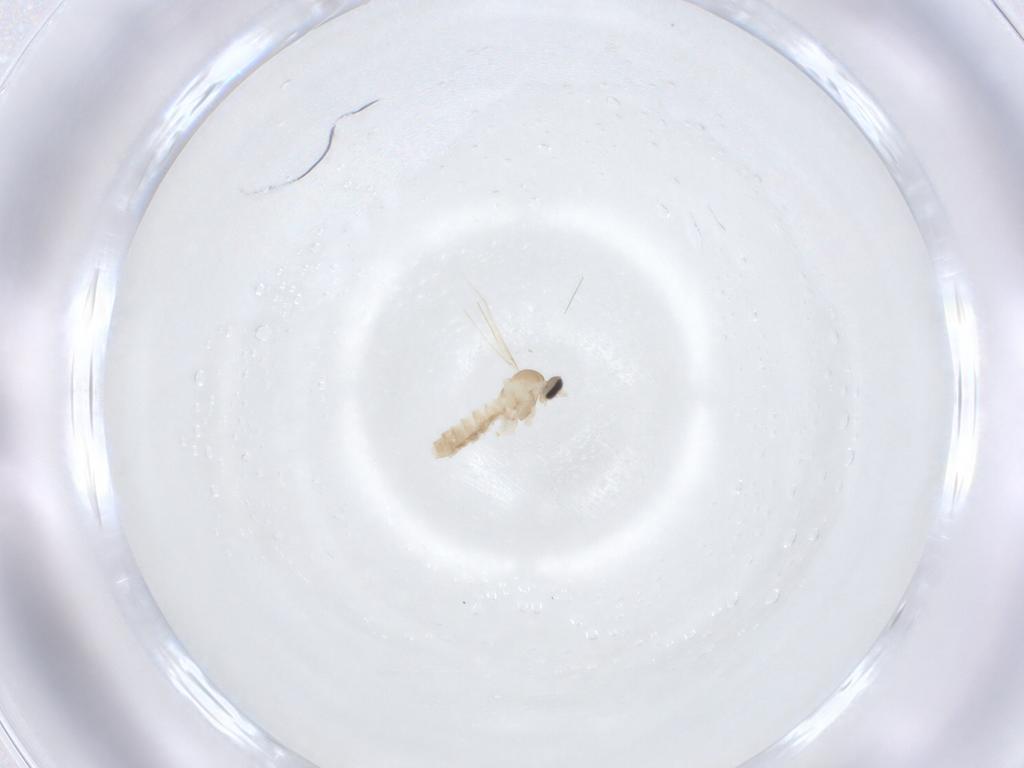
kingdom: Animalia
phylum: Arthropoda
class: Insecta
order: Diptera
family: Cecidomyiidae
